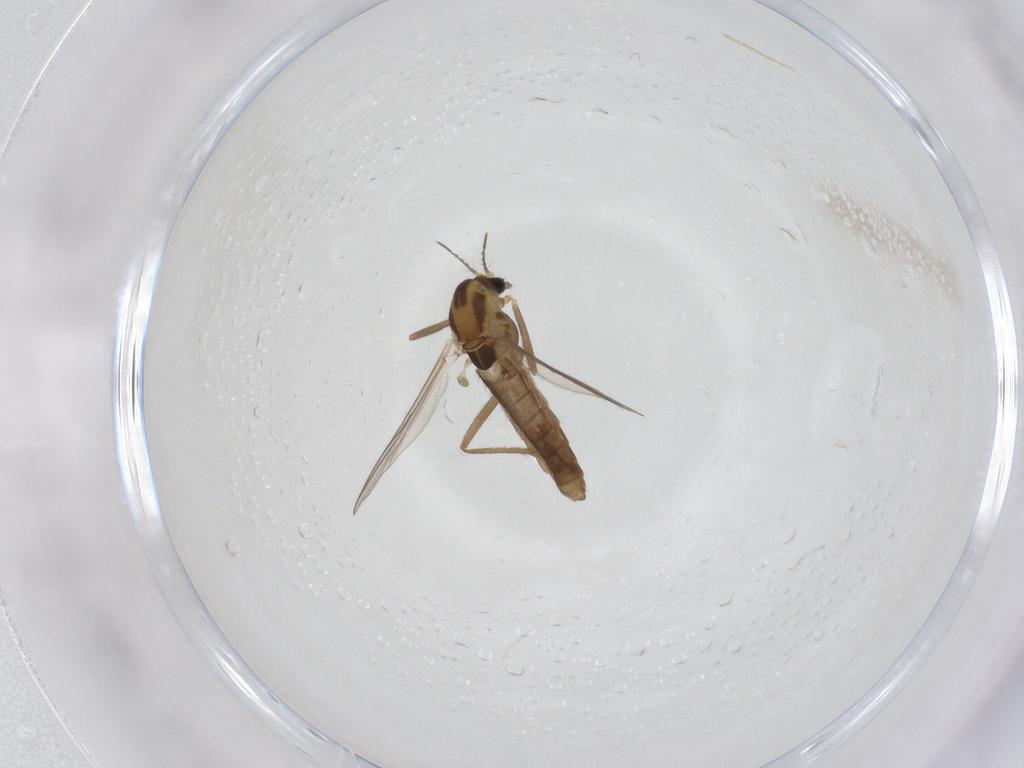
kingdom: Animalia
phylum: Arthropoda
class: Insecta
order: Diptera
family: Chironomidae
